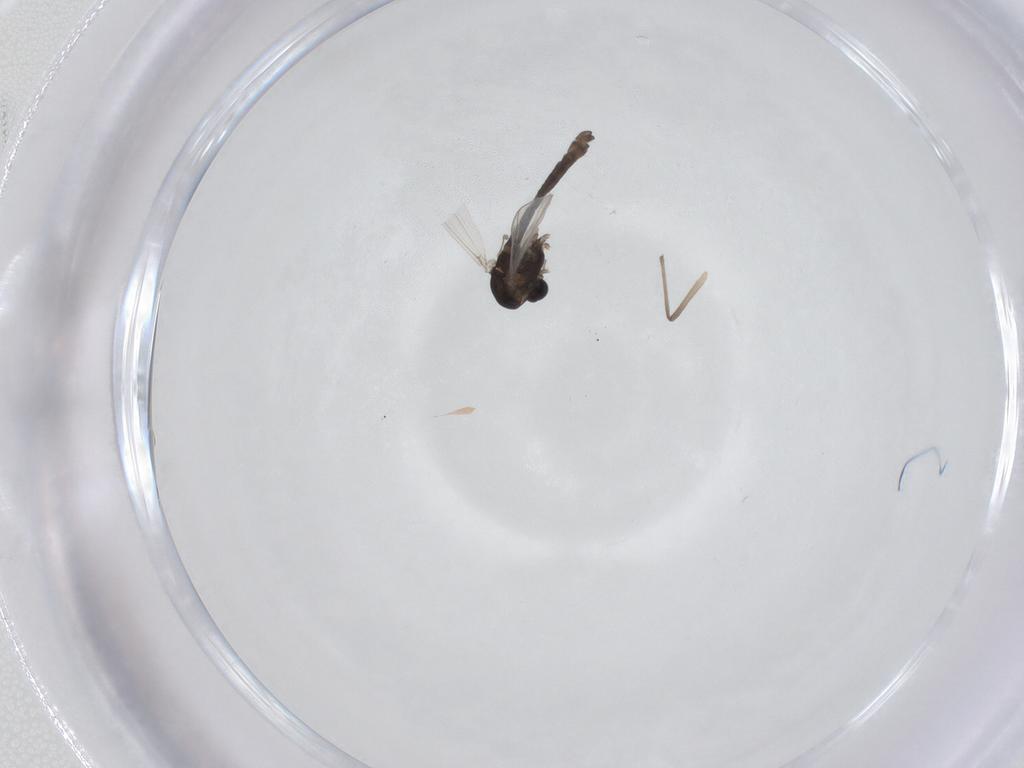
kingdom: Animalia
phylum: Arthropoda
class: Insecta
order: Diptera
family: Chironomidae
